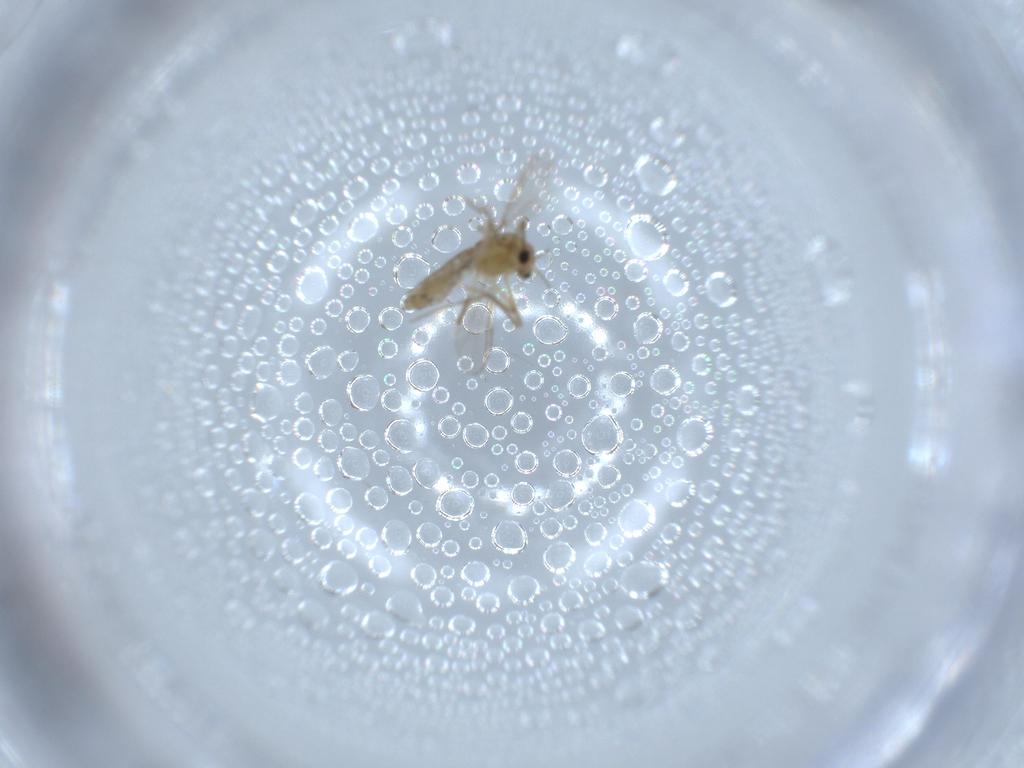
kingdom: Animalia
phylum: Arthropoda
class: Insecta
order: Diptera
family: Chironomidae
